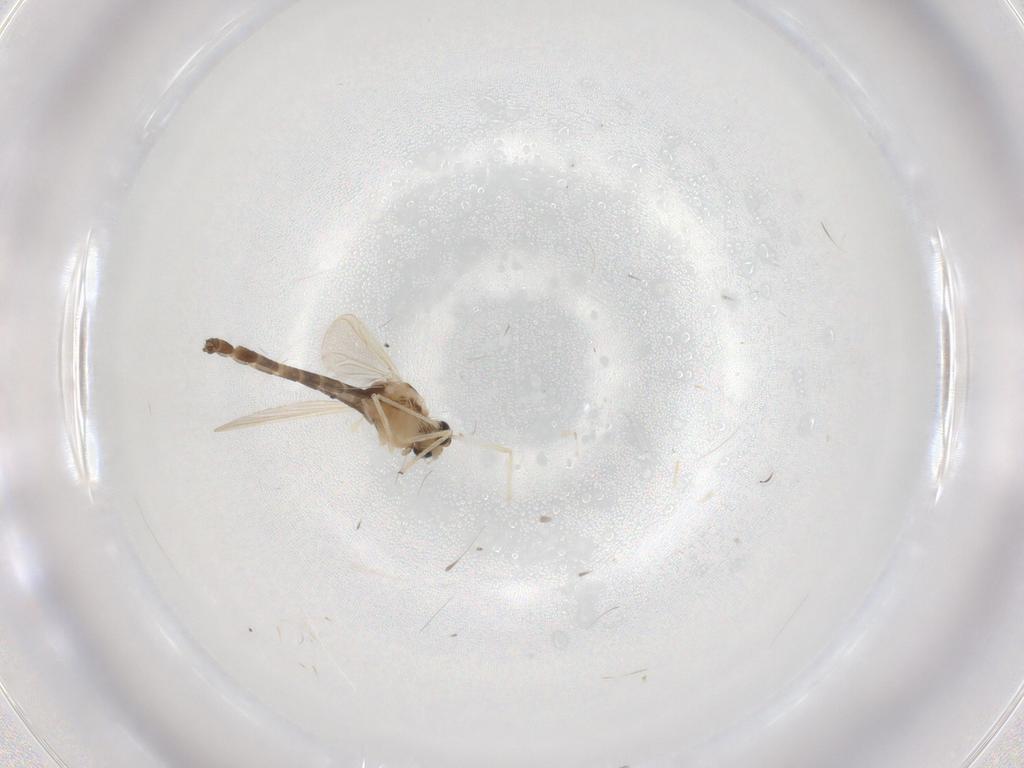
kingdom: Animalia
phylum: Arthropoda
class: Insecta
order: Diptera
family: Chironomidae
